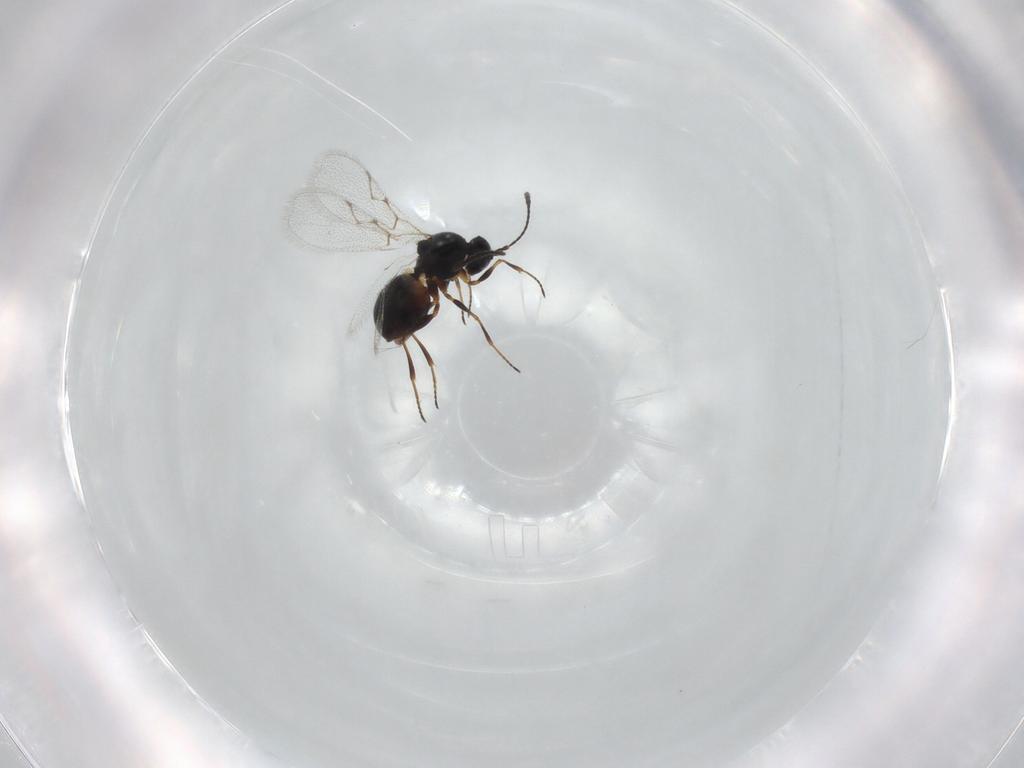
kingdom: Animalia
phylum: Arthropoda
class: Insecta
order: Hymenoptera
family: Figitidae
